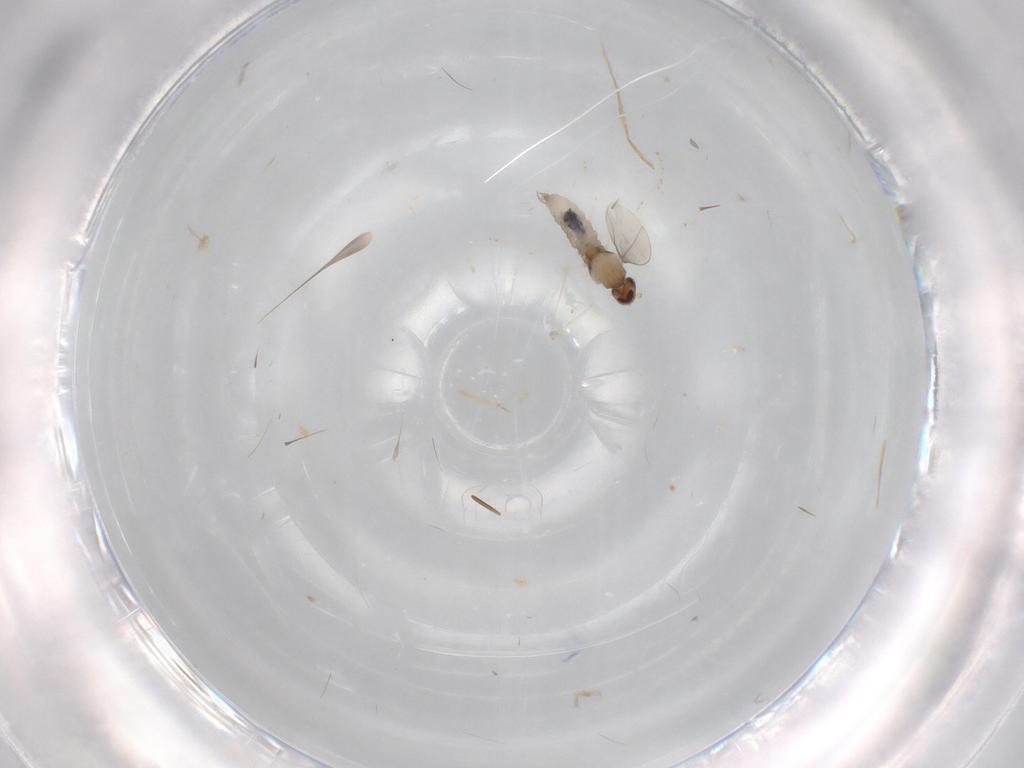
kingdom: Animalia
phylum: Arthropoda
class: Insecta
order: Diptera
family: Cecidomyiidae
